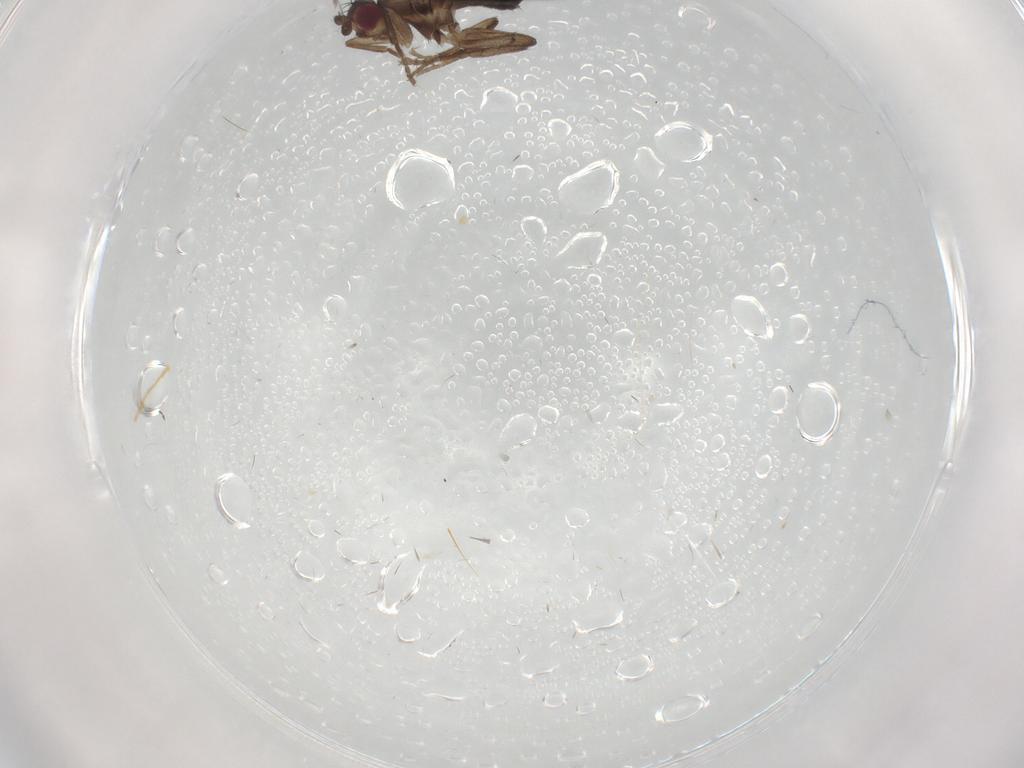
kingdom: Animalia
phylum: Arthropoda
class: Insecta
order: Diptera
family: Sphaeroceridae
